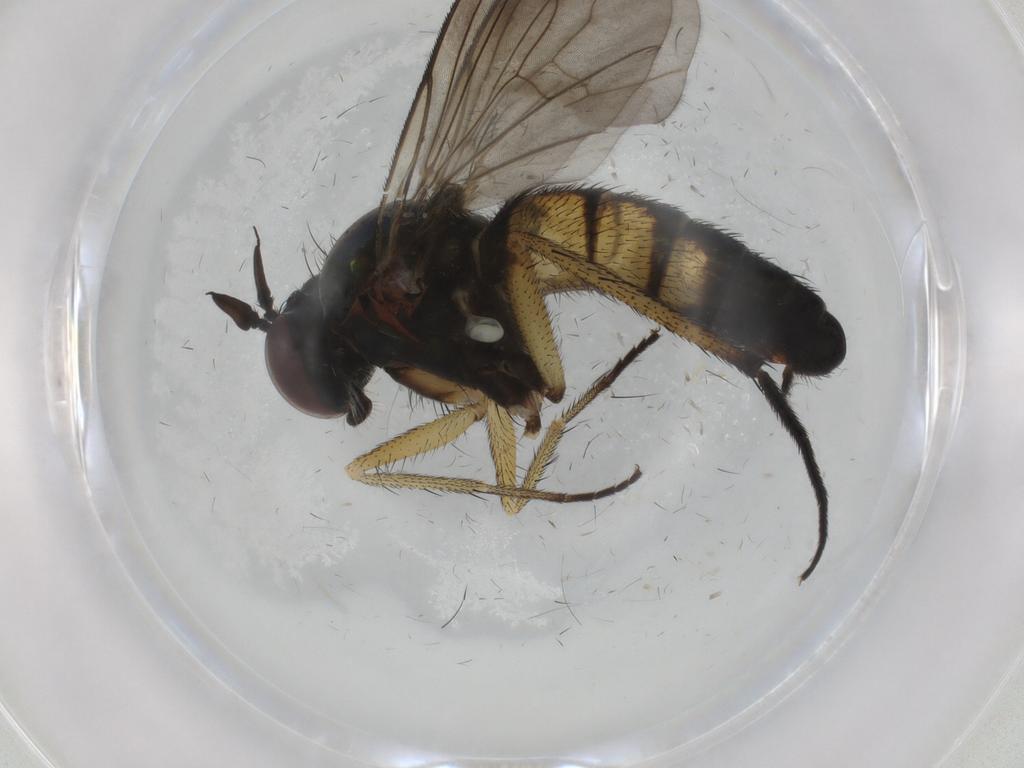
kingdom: Animalia
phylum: Arthropoda
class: Insecta
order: Diptera
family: Dolichopodidae
